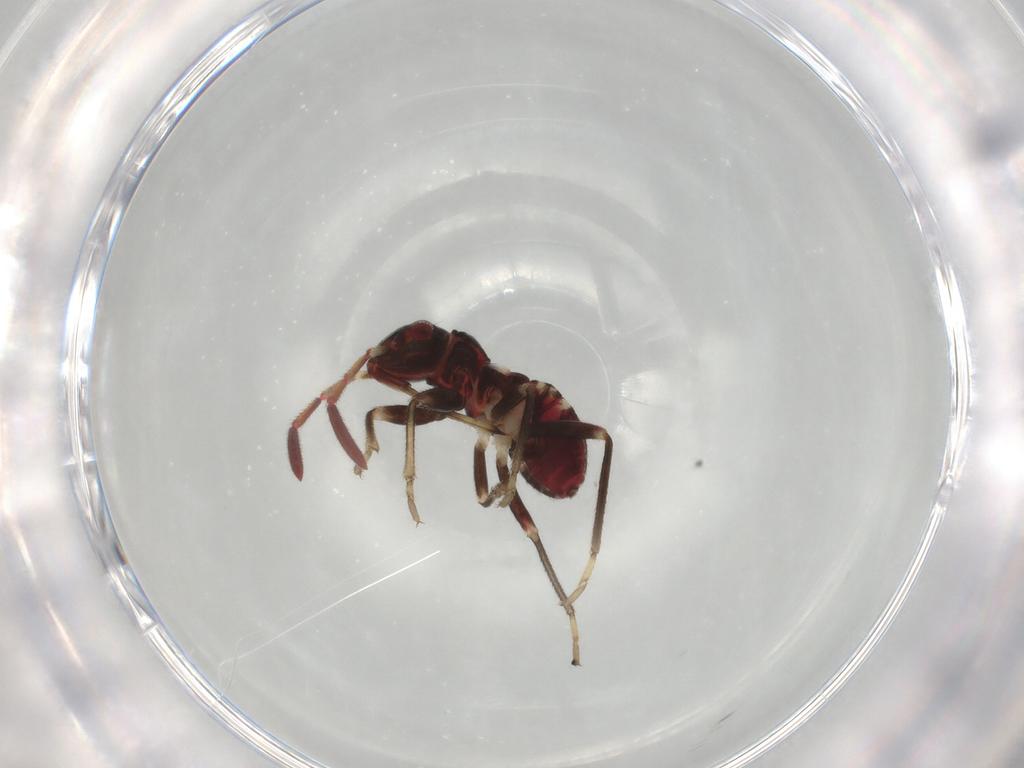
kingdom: Animalia
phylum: Arthropoda
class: Insecta
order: Hemiptera
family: Rhyparochromidae
